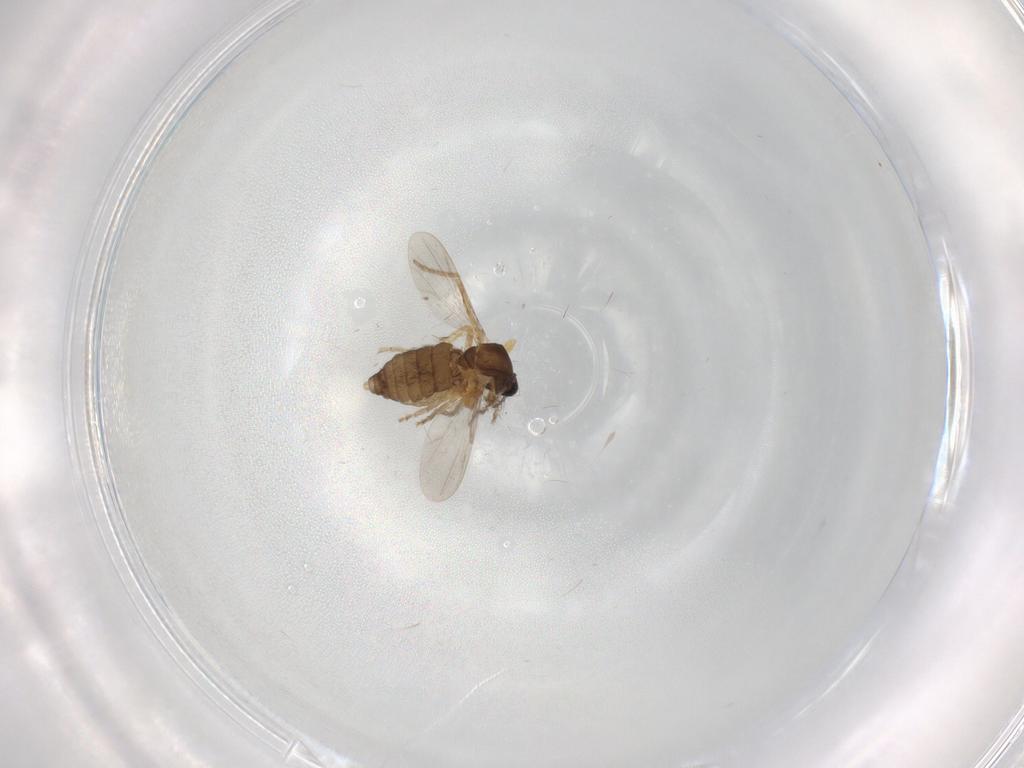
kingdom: Animalia
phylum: Arthropoda
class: Insecta
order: Diptera
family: Ceratopogonidae
